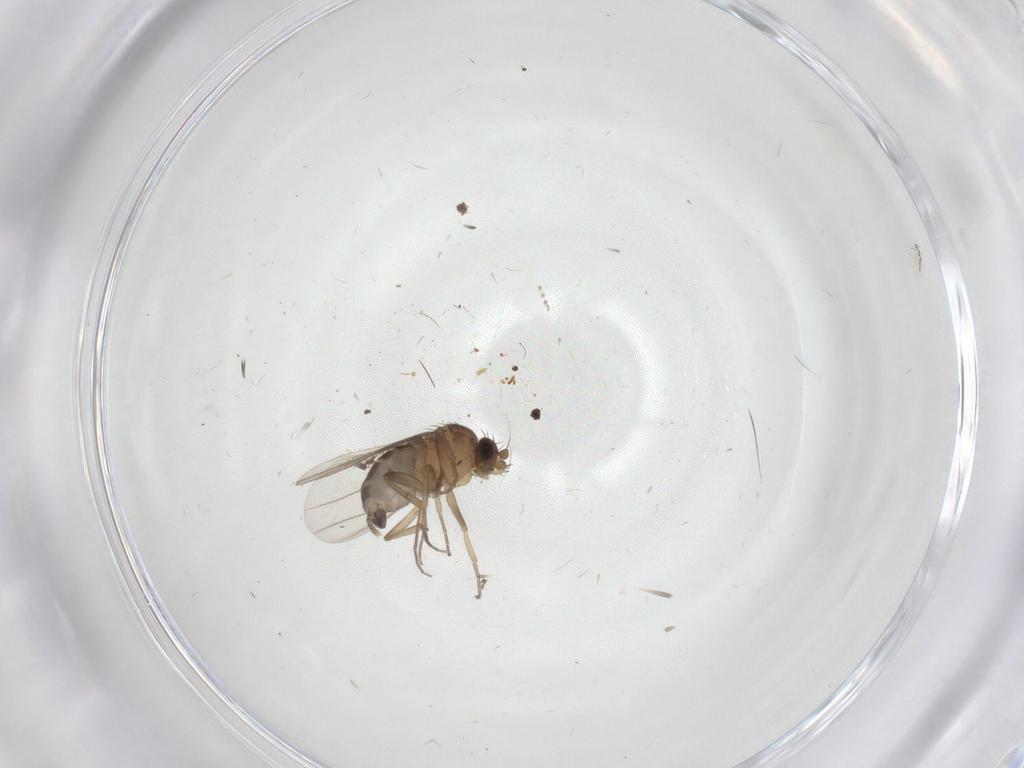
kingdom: Animalia
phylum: Arthropoda
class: Insecta
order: Diptera
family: Phoridae
